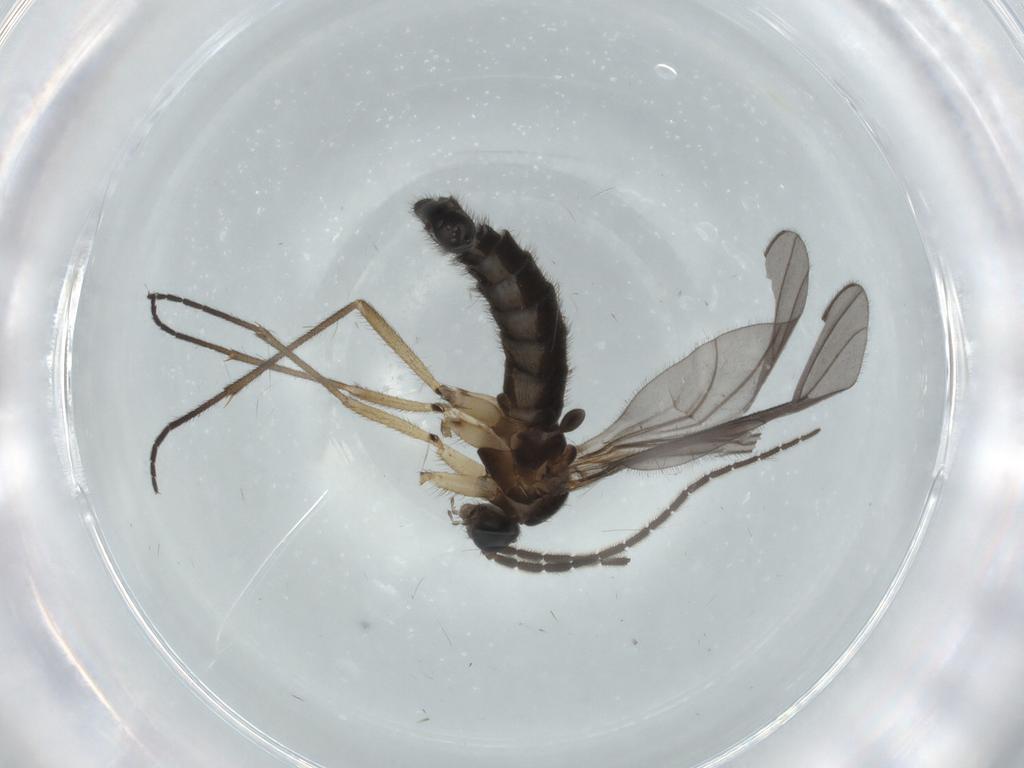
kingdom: Animalia
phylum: Arthropoda
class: Insecta
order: Diptera
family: Sciaridae
